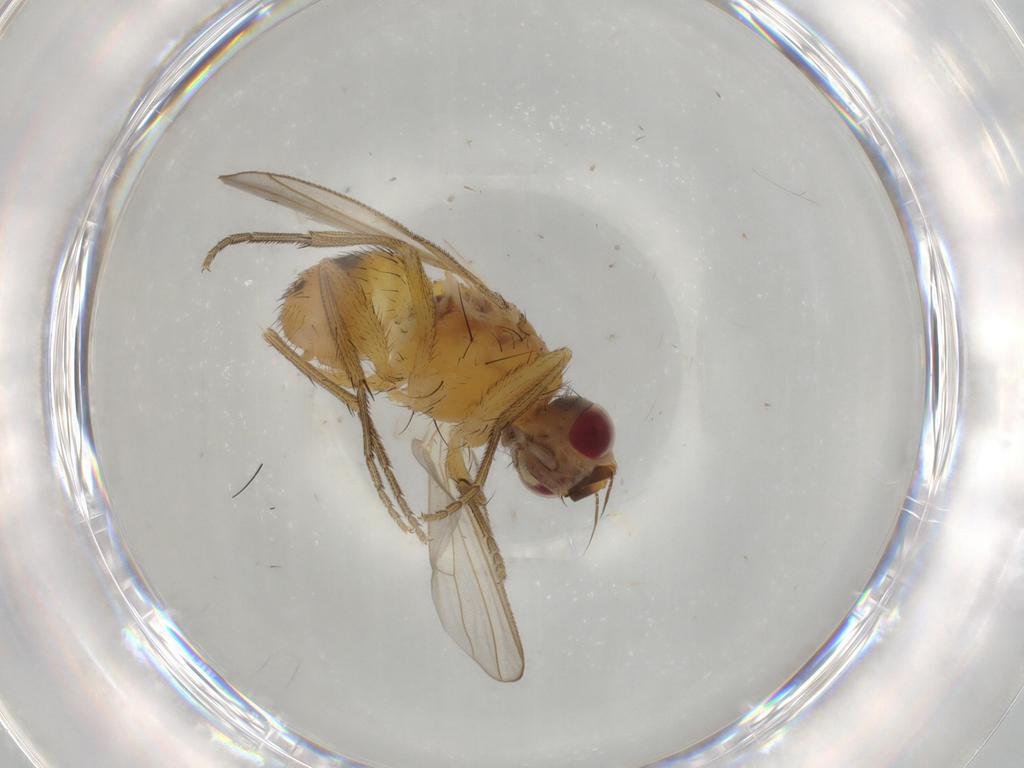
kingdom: Animalia
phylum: Arthropoda
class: Insecta
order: Diptera
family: Muscidae
